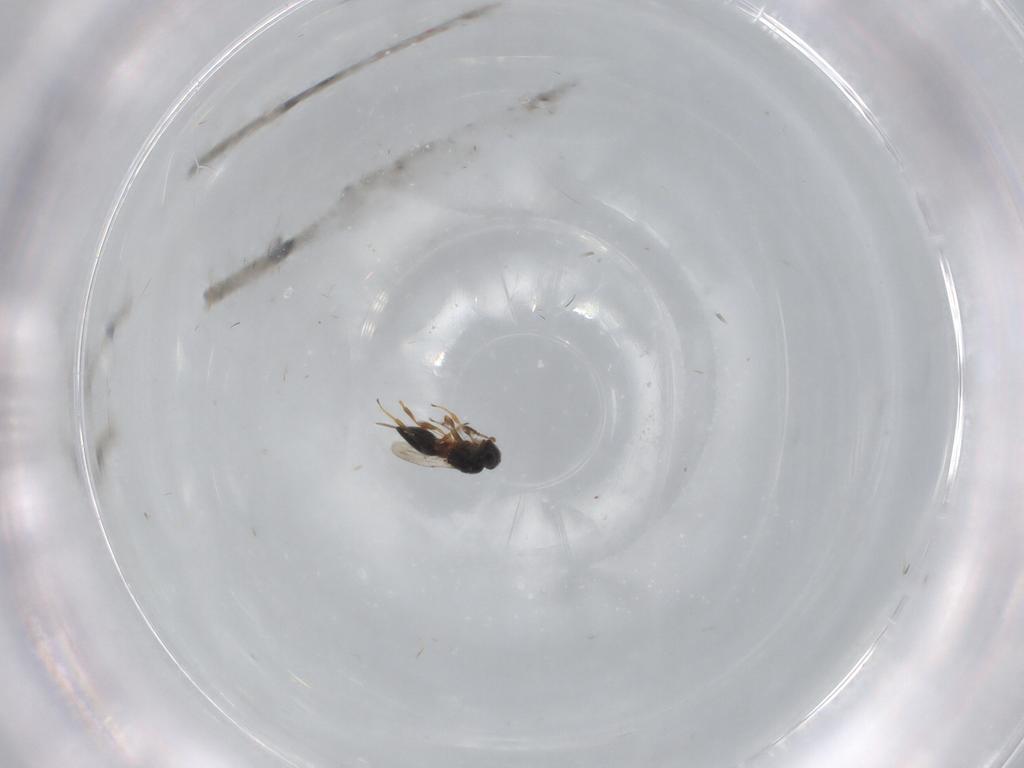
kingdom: Animalia
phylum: Arthropoda
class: Insecta
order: Hymenoptera
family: Platygastridae
